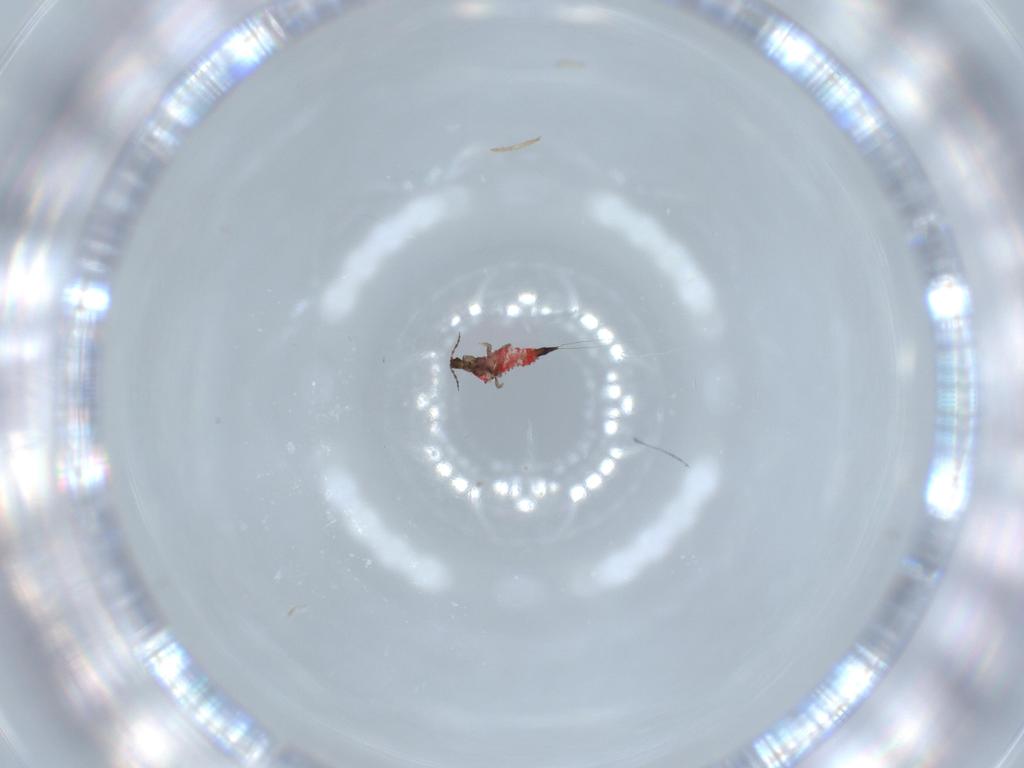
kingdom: Animalia
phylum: Arthropoda
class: Insecta
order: Thysanoptera
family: Phlaeothripidae
